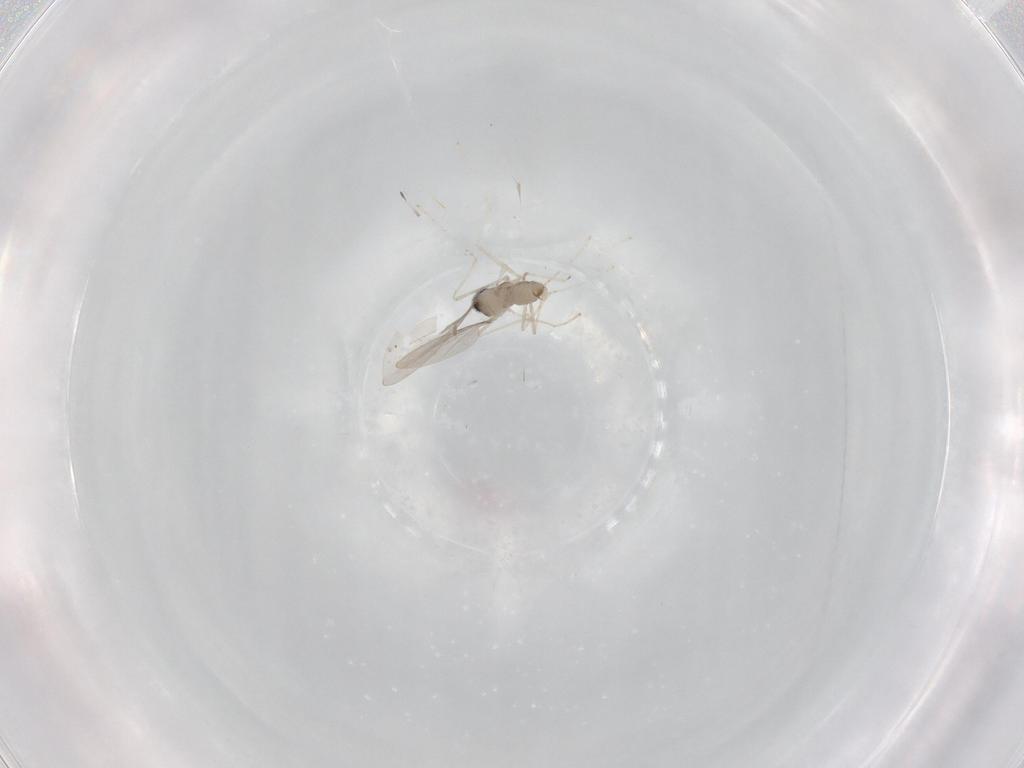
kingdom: Animalia
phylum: Arthropoda
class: Insecta
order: Diptera
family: Cecidomyiidae
